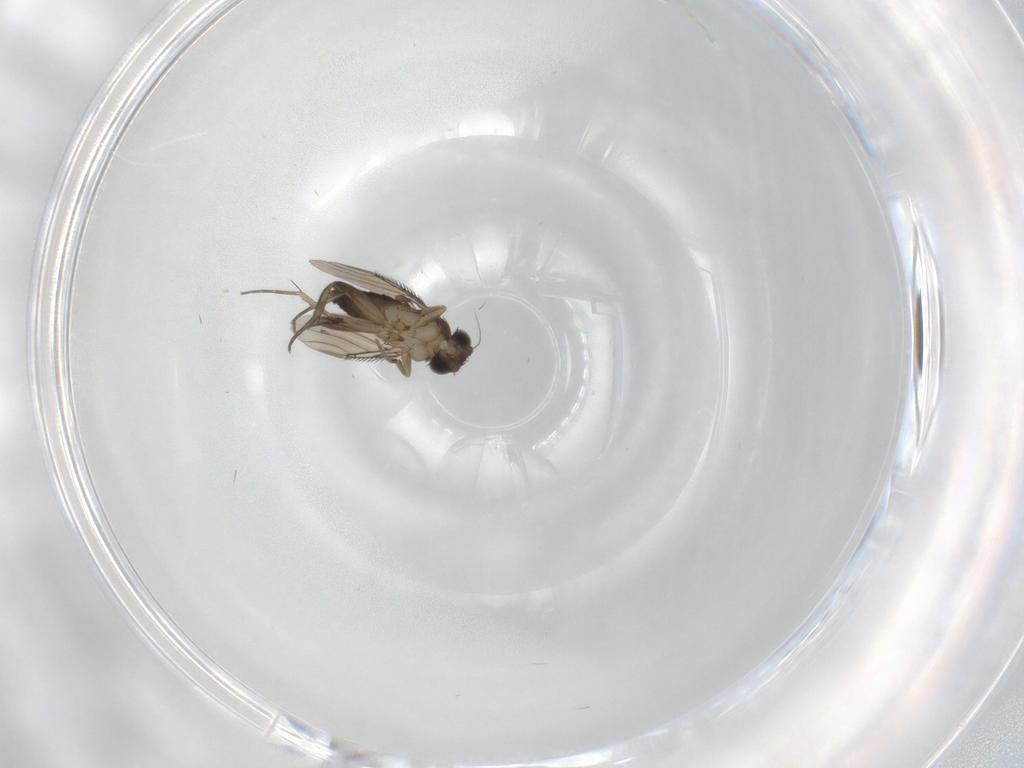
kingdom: Animalia
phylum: Arthropoda
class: Insecta
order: Diptera
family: Phoridae
